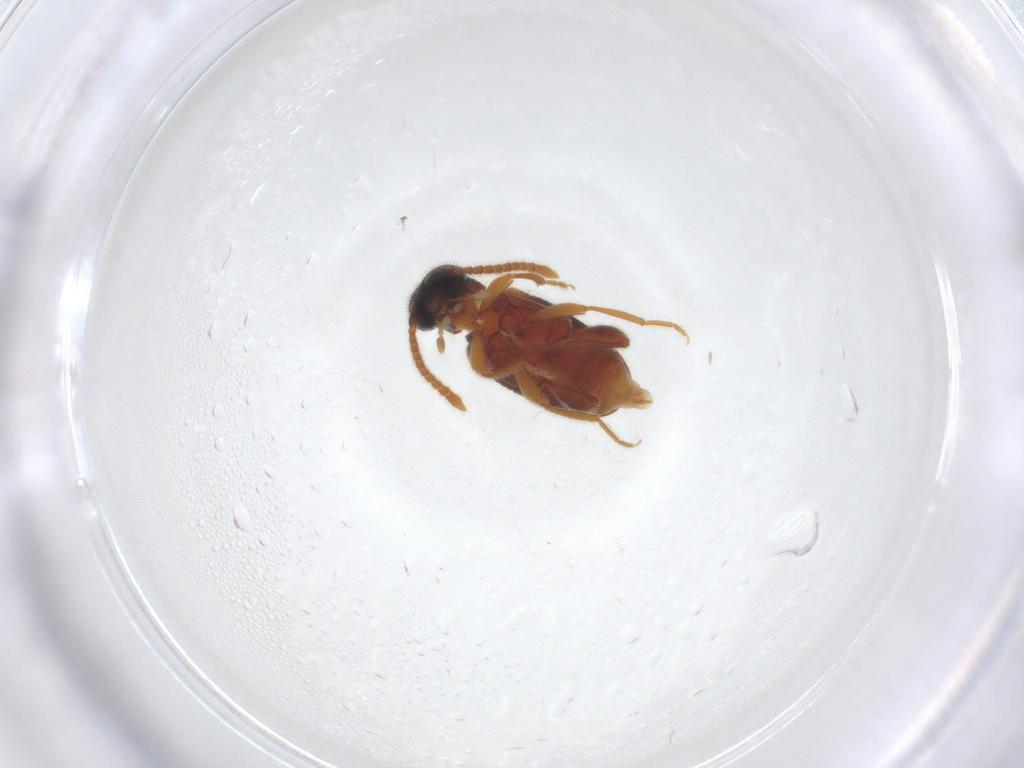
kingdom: Animalia
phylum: Arthropoda
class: Insecta
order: Coleoptera
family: Aderidae
